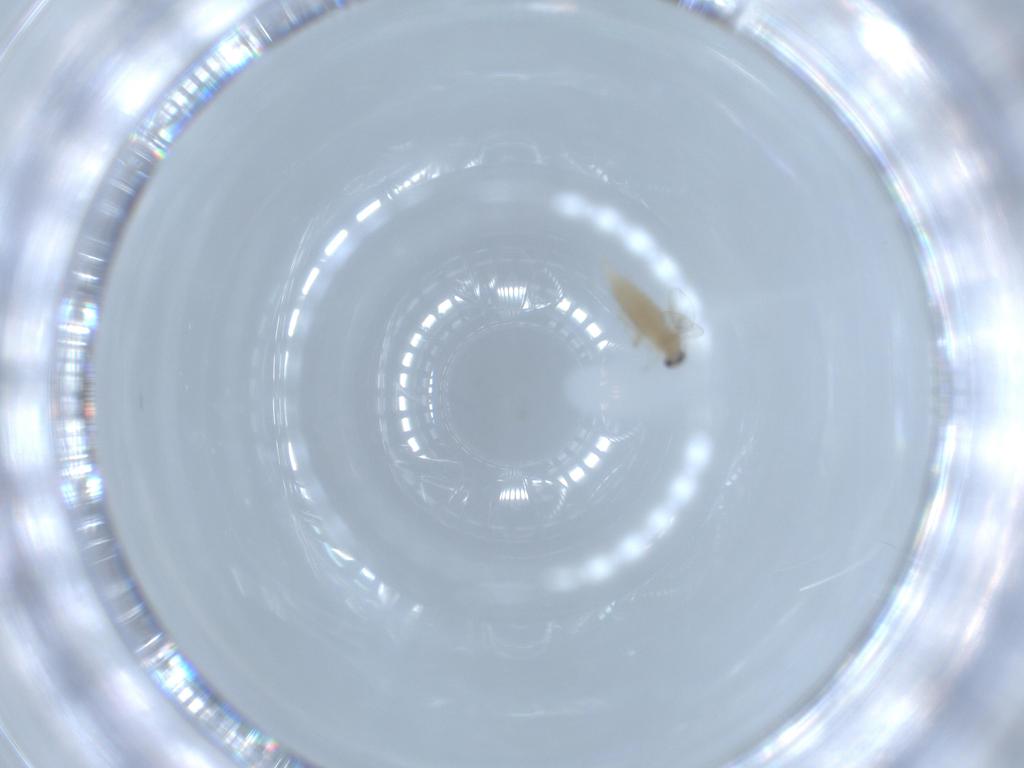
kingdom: Animalia
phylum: Arthropoda
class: Insecta
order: Diptera
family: Cecidomyiidae
